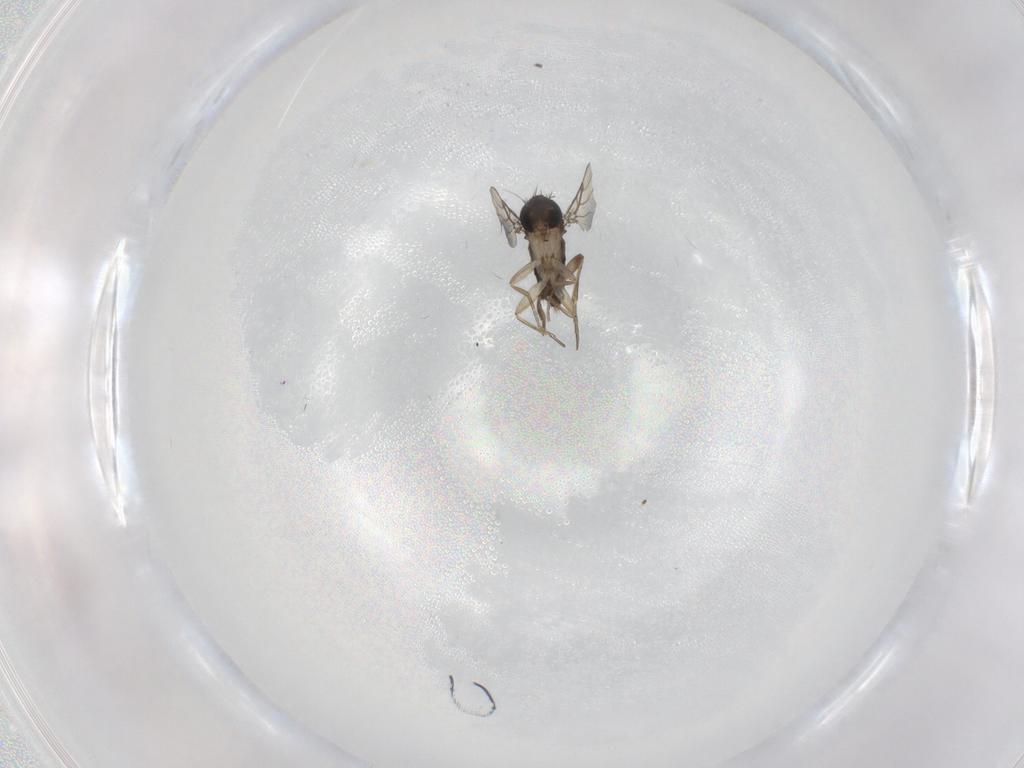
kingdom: Animalia
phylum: Arthropoda
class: Insecta
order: Diptera
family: Phoridae
